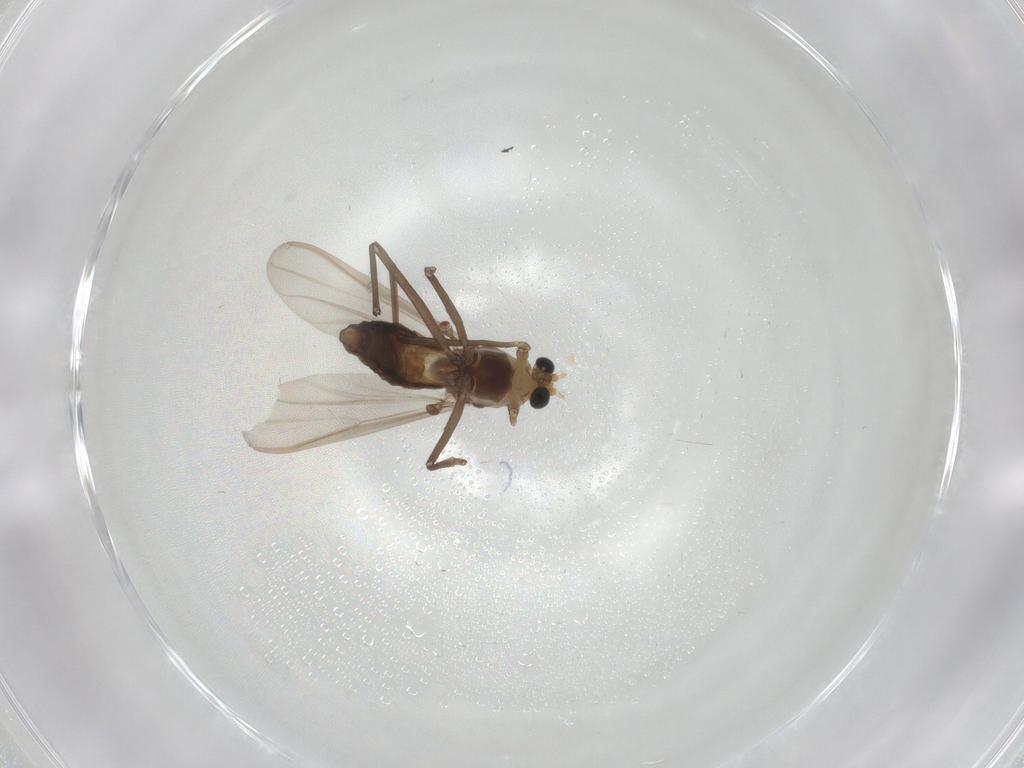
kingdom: Animalia
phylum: Arthropoda
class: Insecta
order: Diptera
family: Chironomidae
